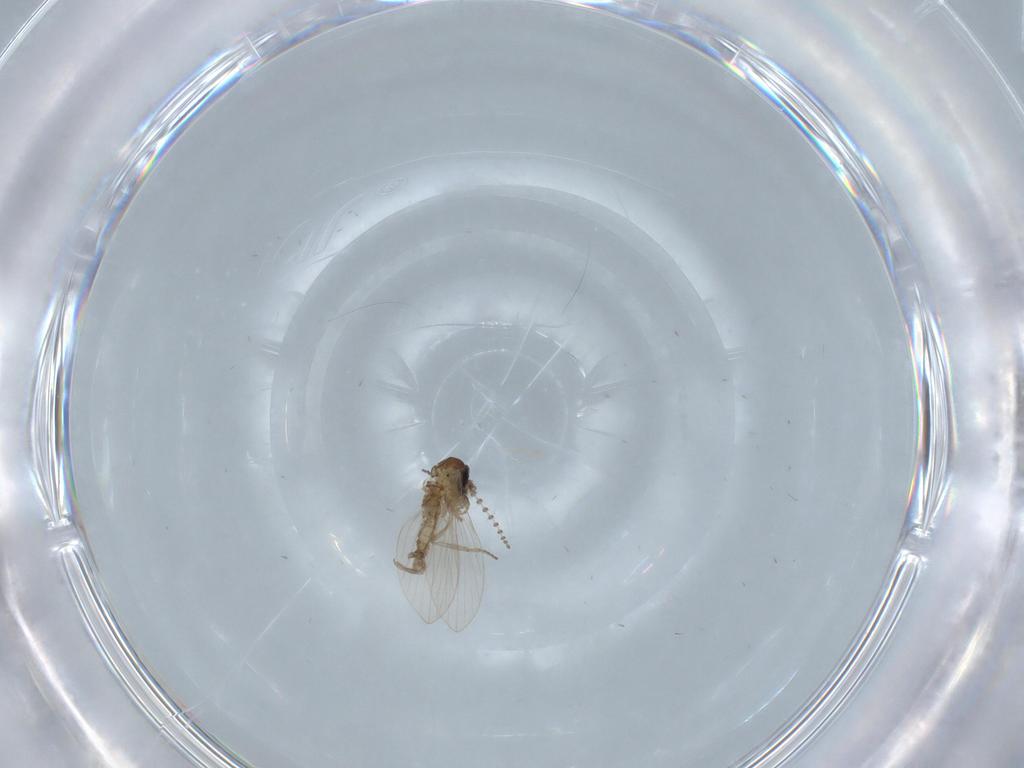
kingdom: Animalia
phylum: Arthropoda
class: Insecta
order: Diptera
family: Psychodidae
